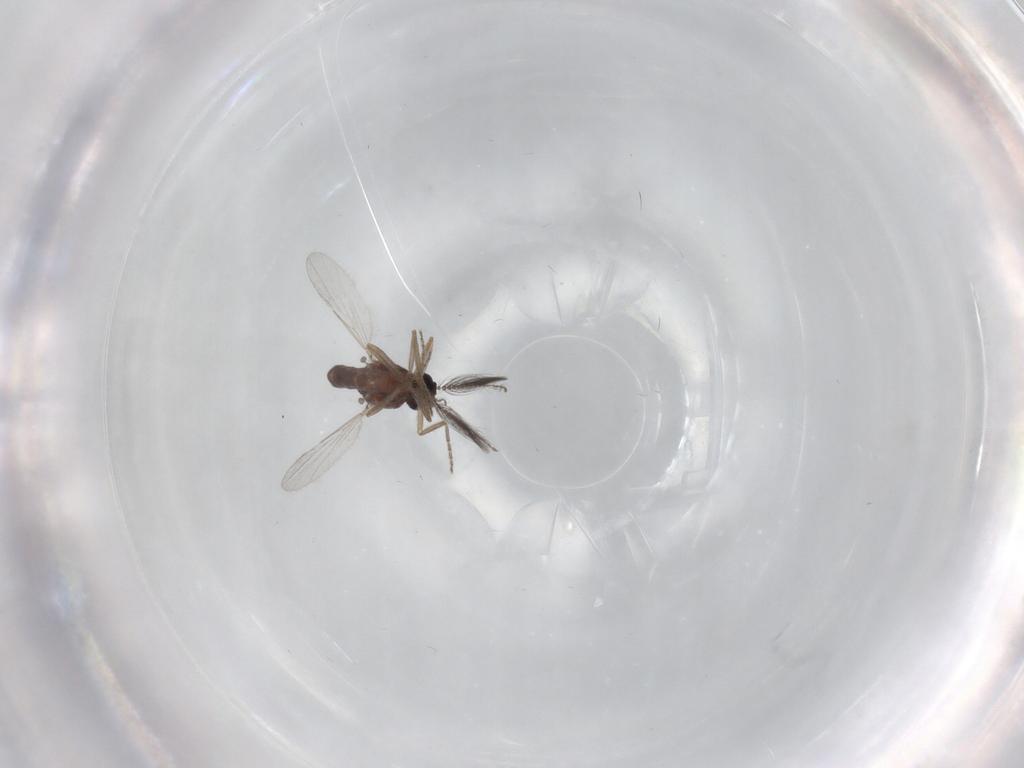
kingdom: Animalia
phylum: Arthropoda
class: Insecta
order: Diptera
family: Ceratopogonidae
